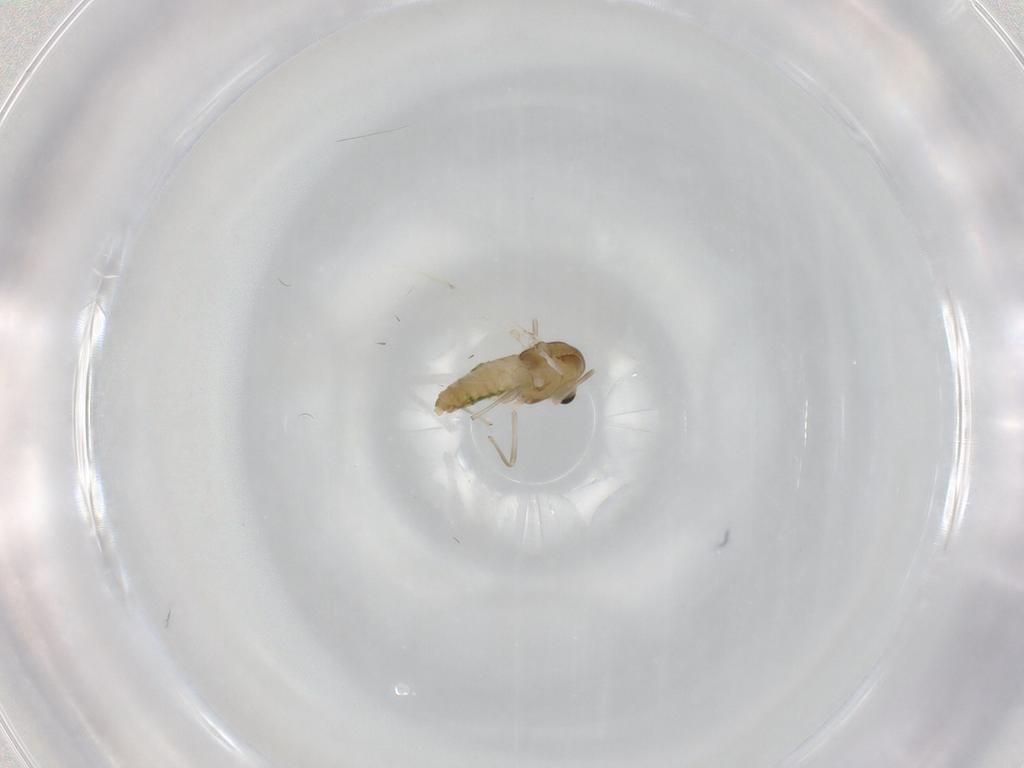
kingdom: Animalia
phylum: Arthropoda
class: Insecta
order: Diptera
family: Chironomidae
